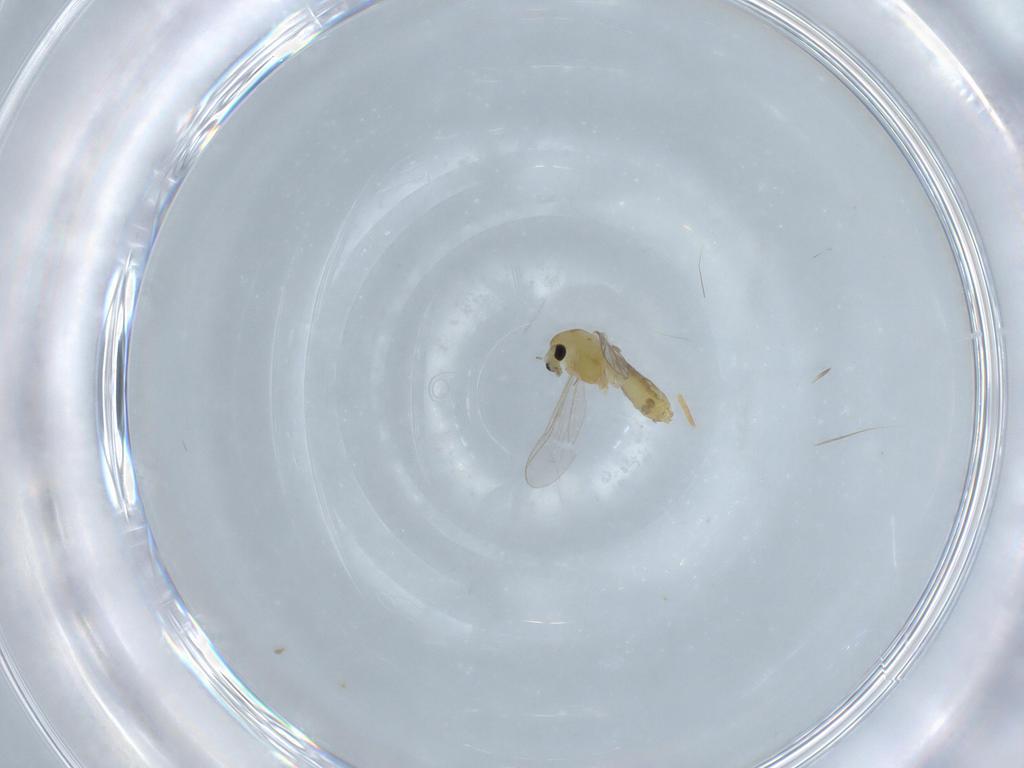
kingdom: Animalia
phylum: Arthropoda
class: Insecta
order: Diptera
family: Chironomidae
